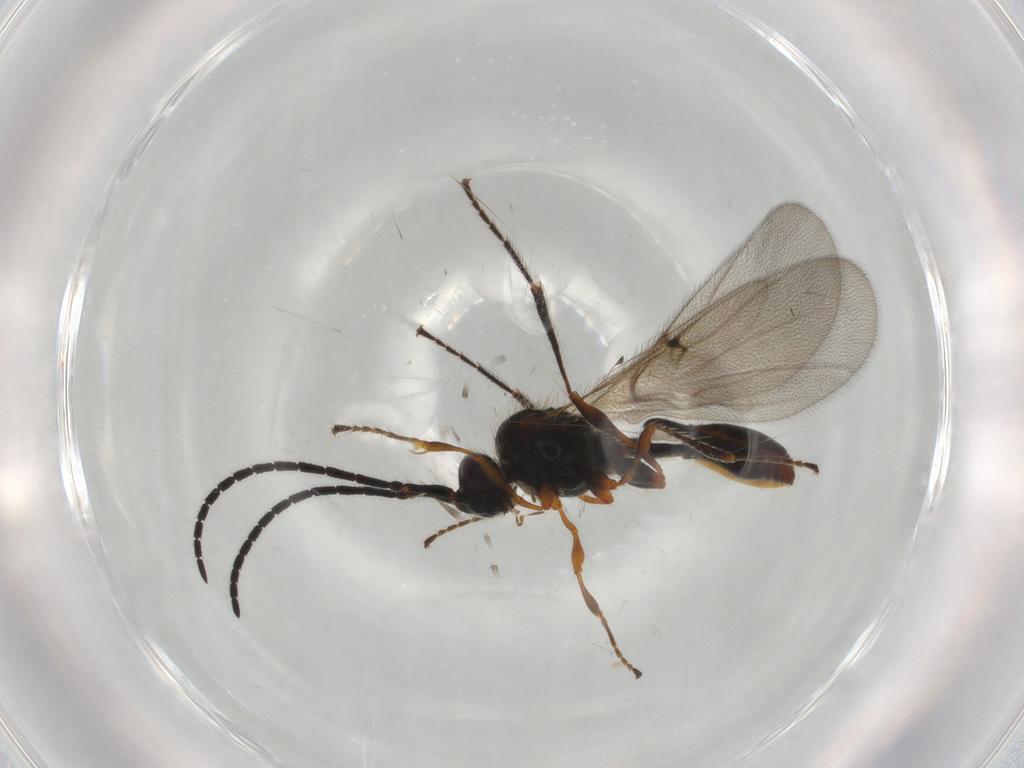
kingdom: Animalia
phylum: Arthropoda
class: Insecta
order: Hymenoptera
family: Diapriidae
